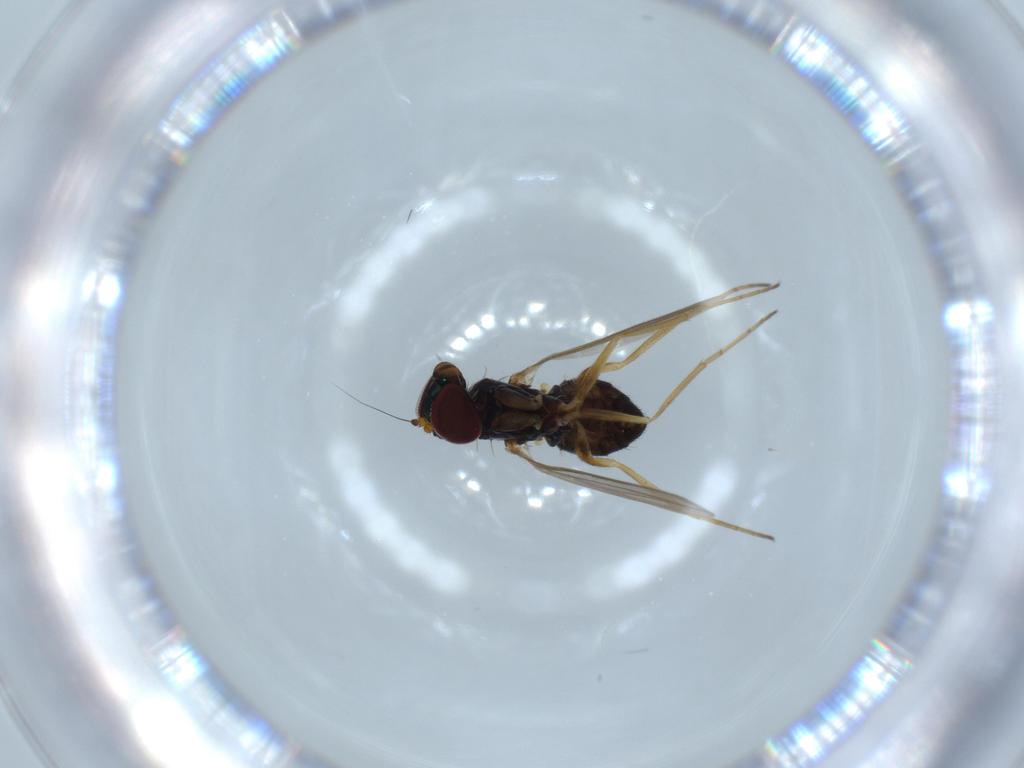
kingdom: Animalia
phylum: Arthropoda
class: Insecta
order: Diptera
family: Dolichopodidae
